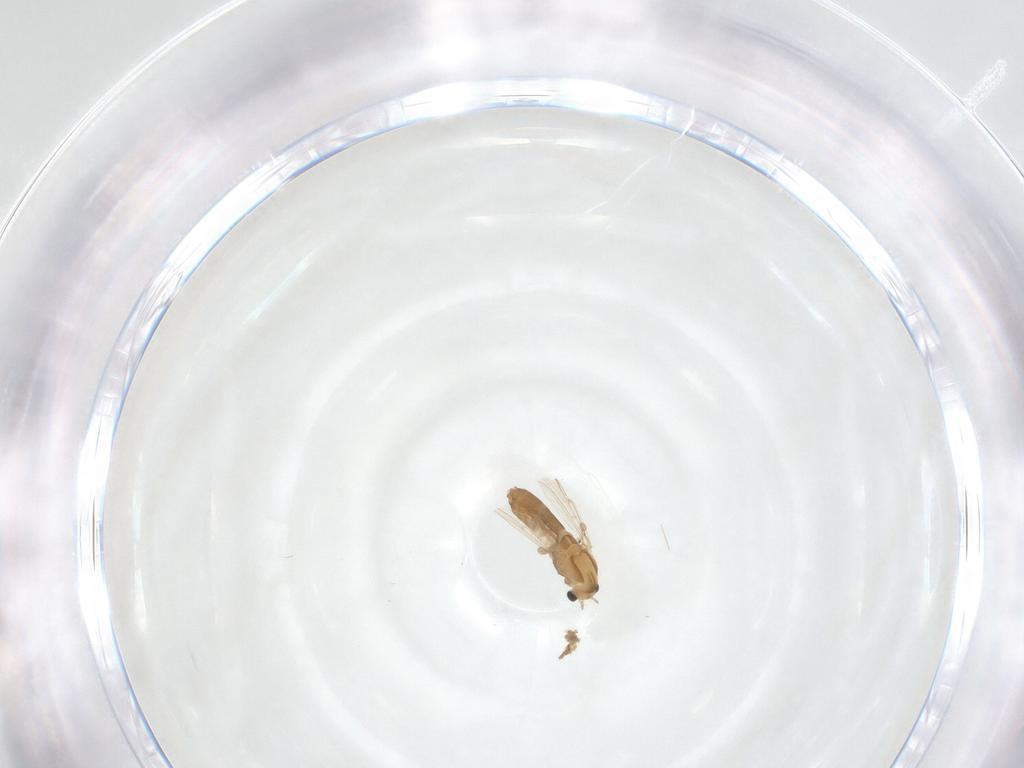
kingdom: Animalia
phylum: Arthropoda
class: Insecta
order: Diptera
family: Chironomidae
